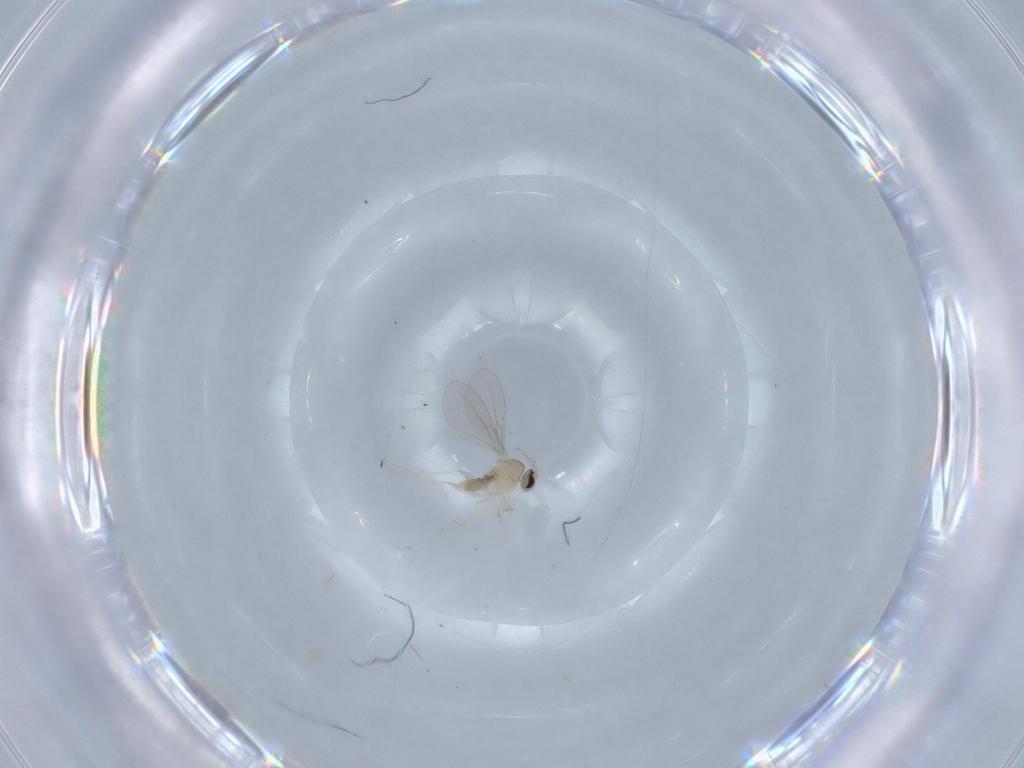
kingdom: Animalia
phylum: Arthropoda
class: Insecta
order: Diptera
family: Cecidomyiidae
